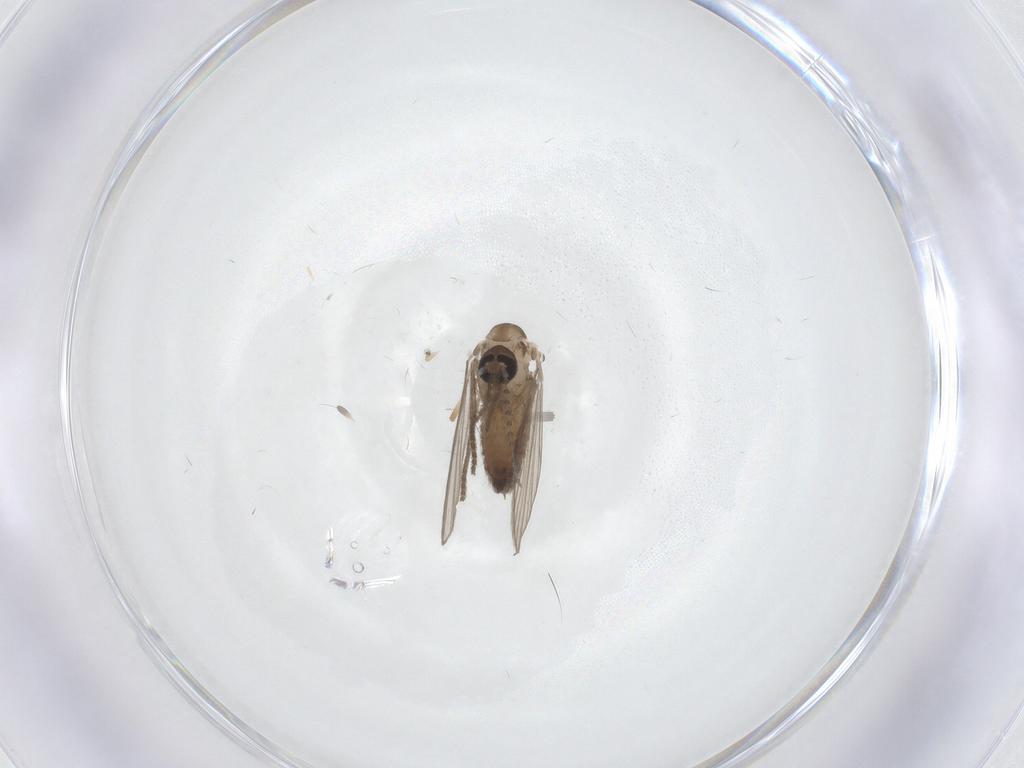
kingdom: Animalia
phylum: Arthropoda
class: Insecta
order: Diptera
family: Psychodidae
